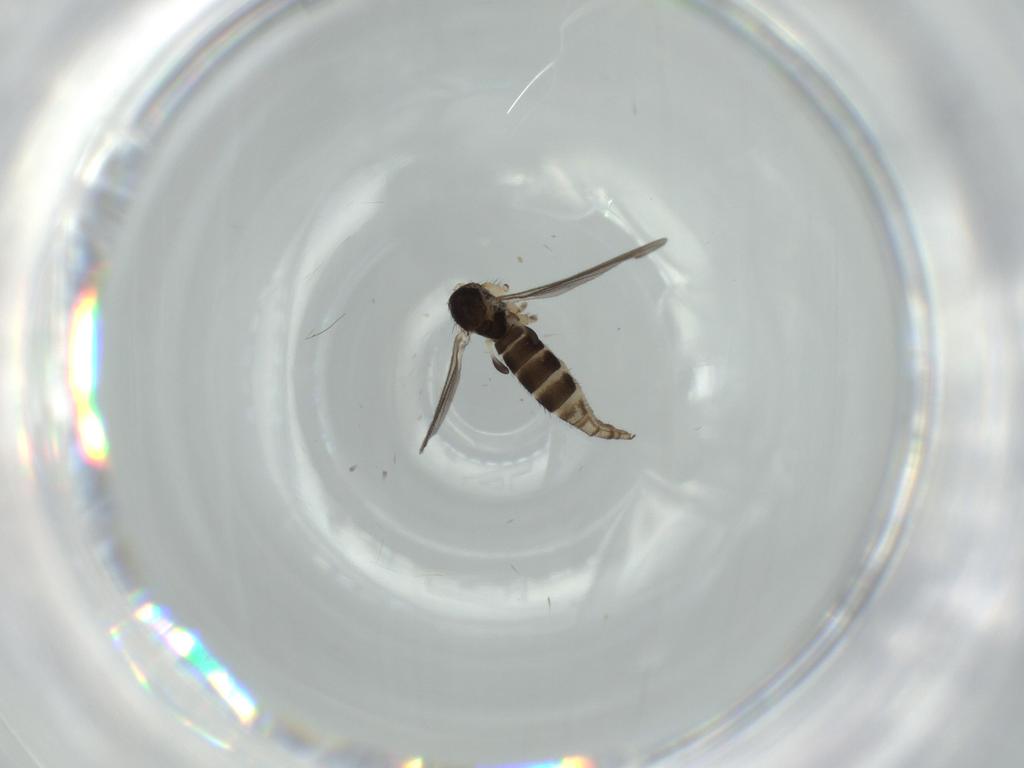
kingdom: Animalia
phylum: Arthropoda
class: Insecta
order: Diptera
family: Sciaridae
